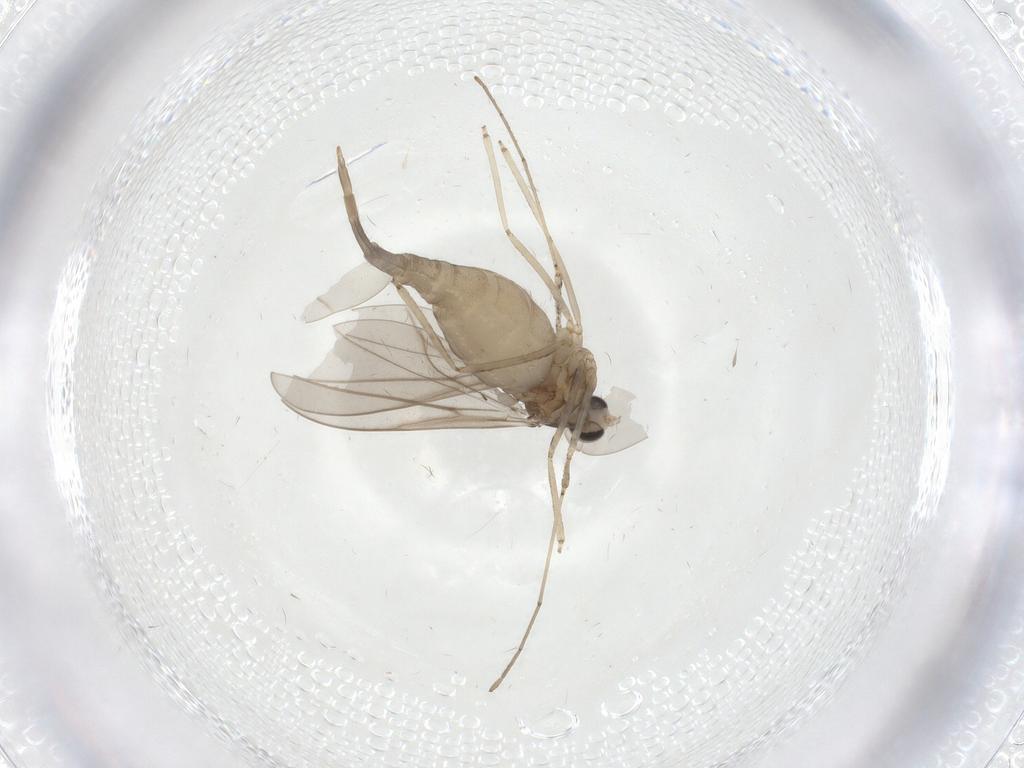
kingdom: Animalia
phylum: Arthropoda
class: Insecta
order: Diptera
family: Cecidomyiidae
